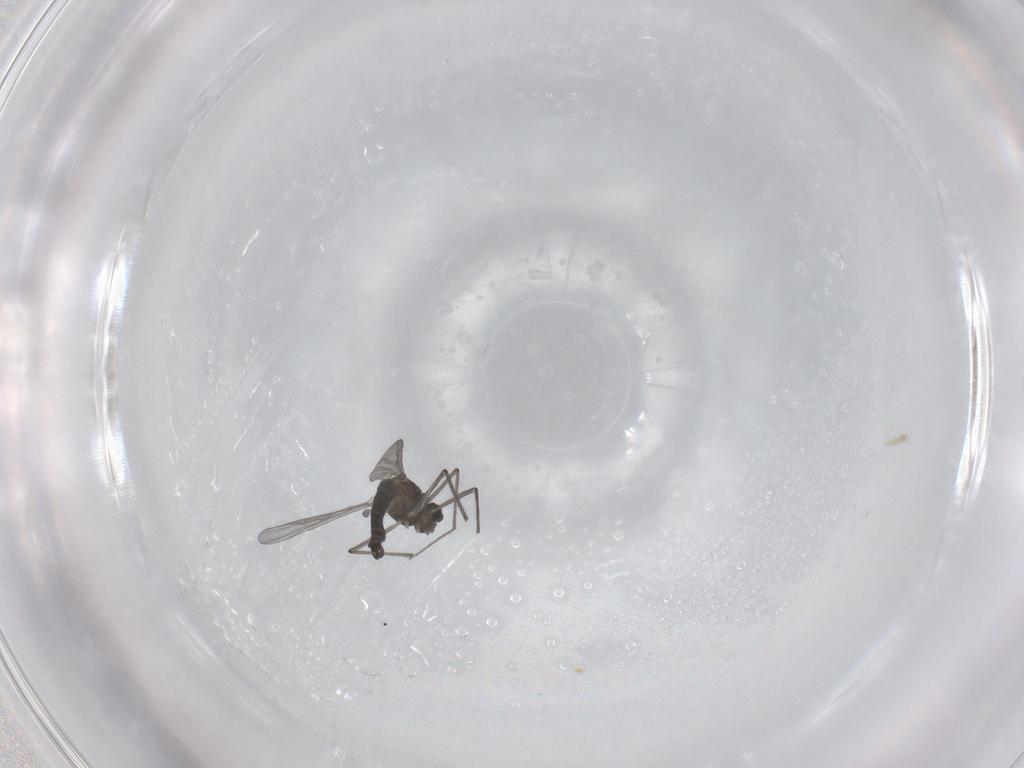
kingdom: Animalia
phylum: Arthropoda
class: Insecta
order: Diptera
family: Chironomidae
